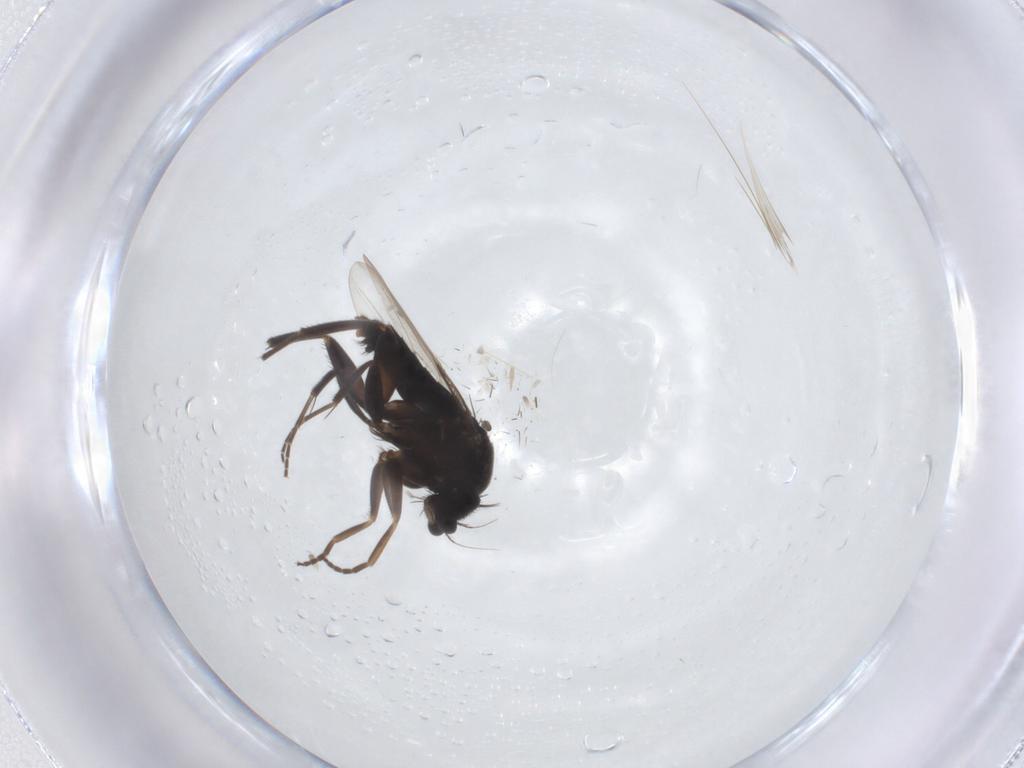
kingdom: Animalia
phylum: Arthropoda
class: Insecta
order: Diptera
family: Ceratopogonidae
